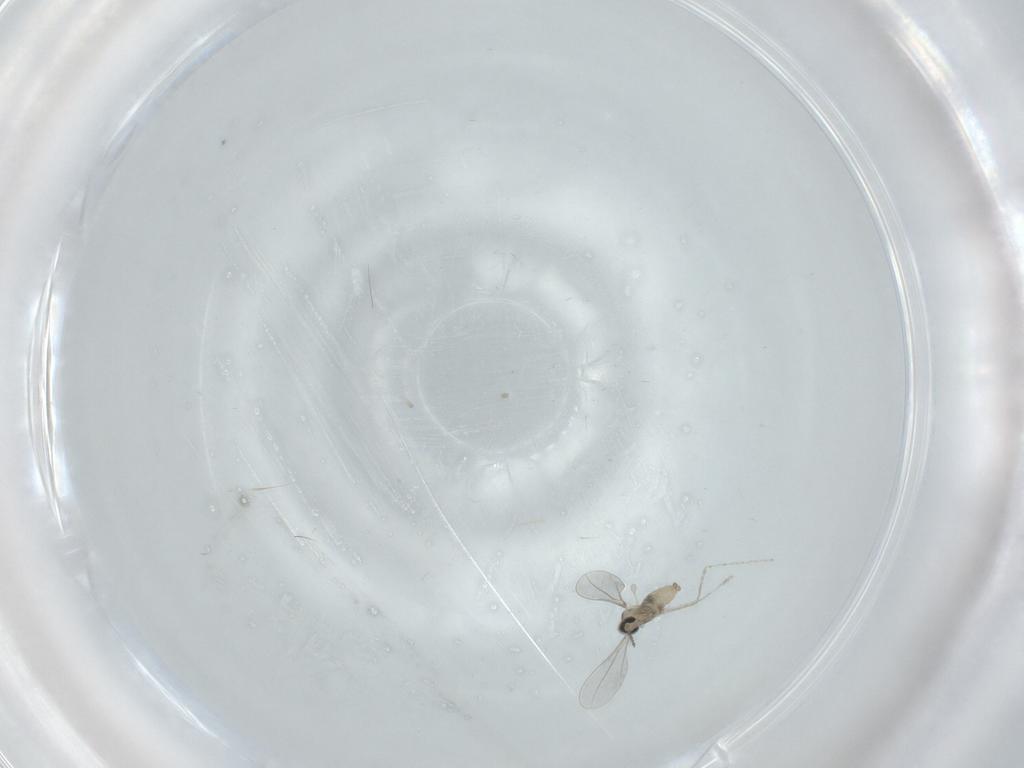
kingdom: Animalia
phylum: Arthropoda
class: Insecta
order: Diptera
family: Cecidomyiidae
